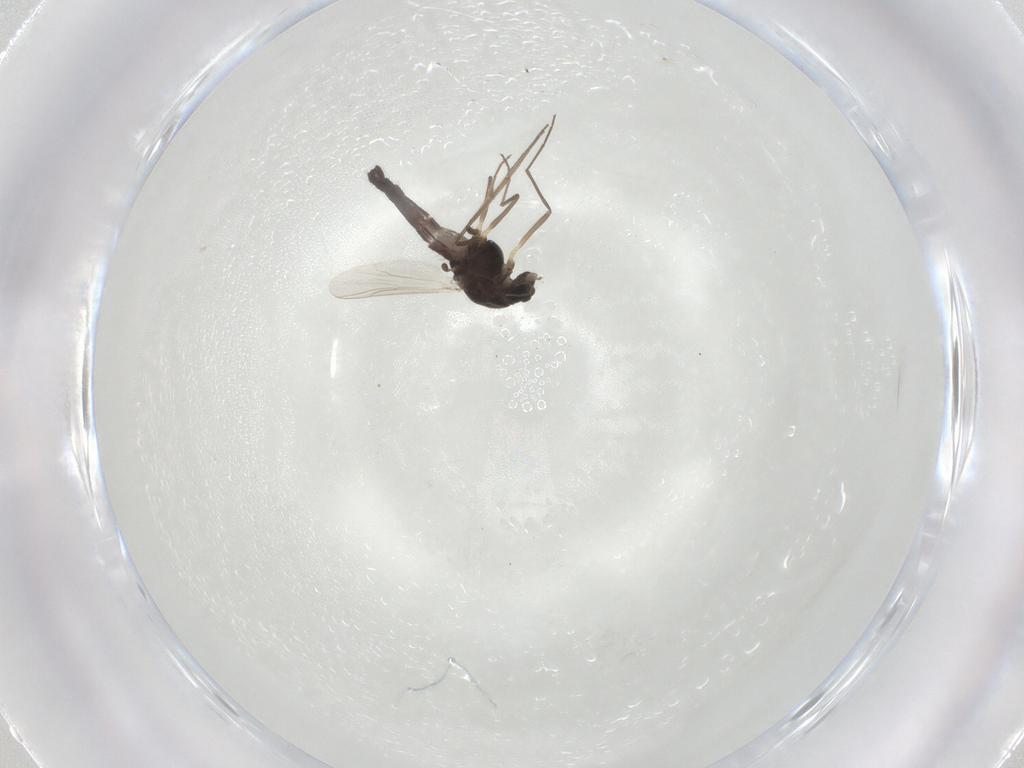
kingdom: Animalia
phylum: Arthropoda
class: Insecta
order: Diptera
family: Chironomidae
